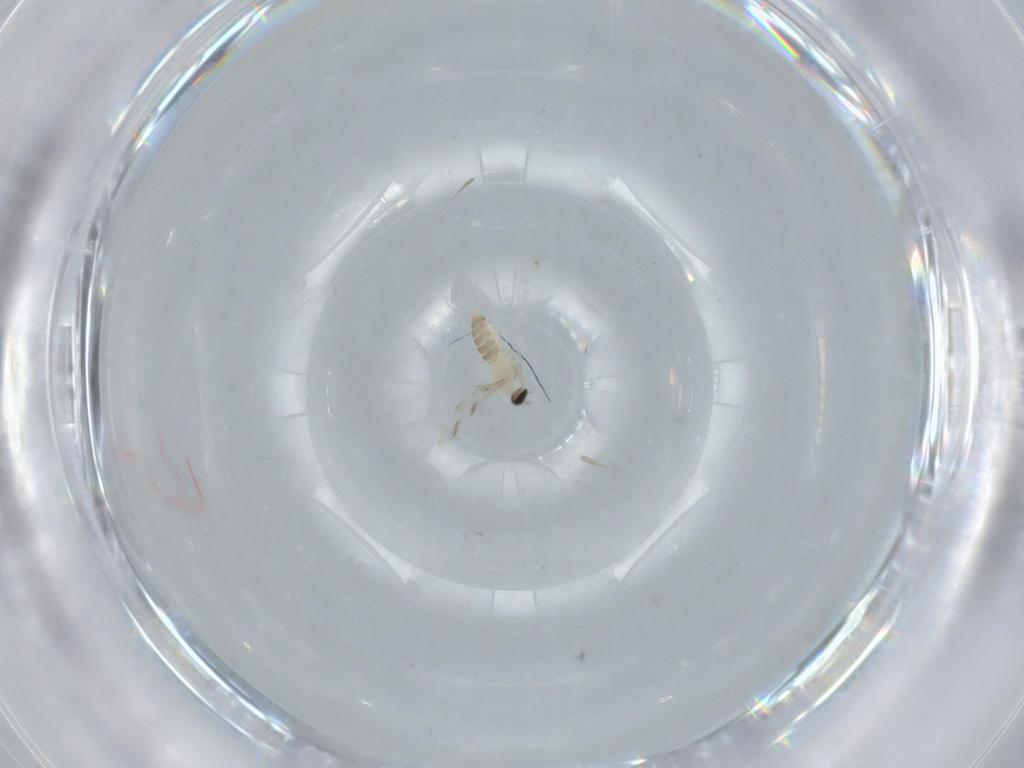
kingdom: Animalia
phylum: Arthropoda
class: Insecta
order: Diptera
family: Cecidomyiidae
